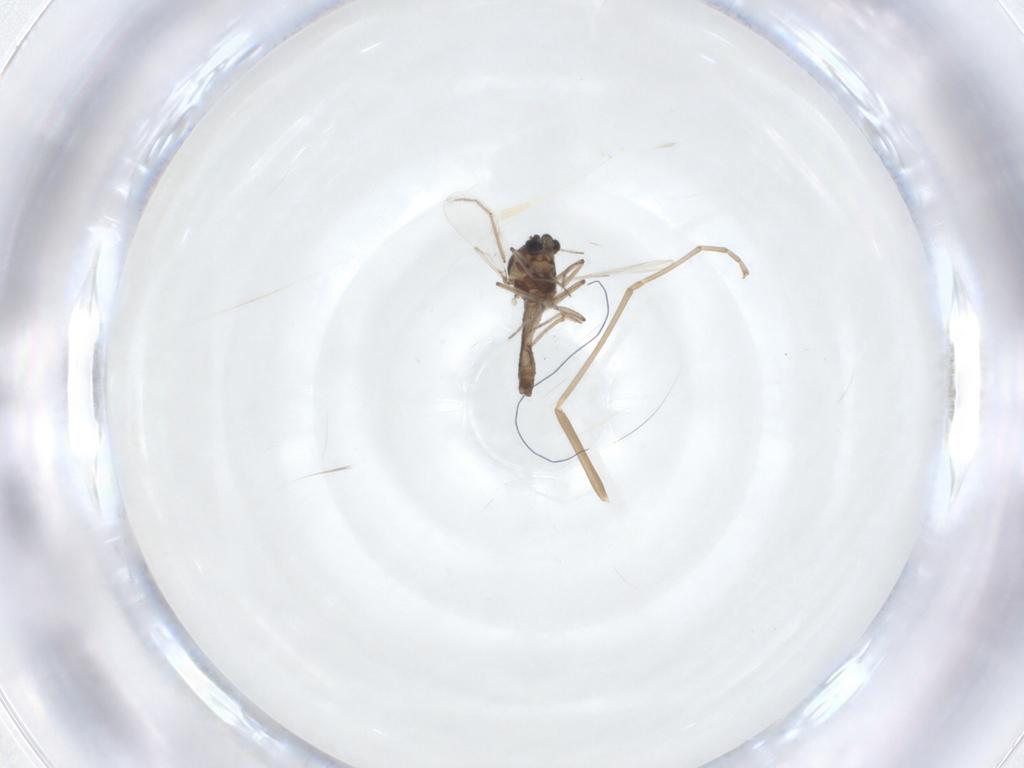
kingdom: Animalia
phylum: Arthropoda
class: Insecta
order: Diptera
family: Ceratopogonidae
